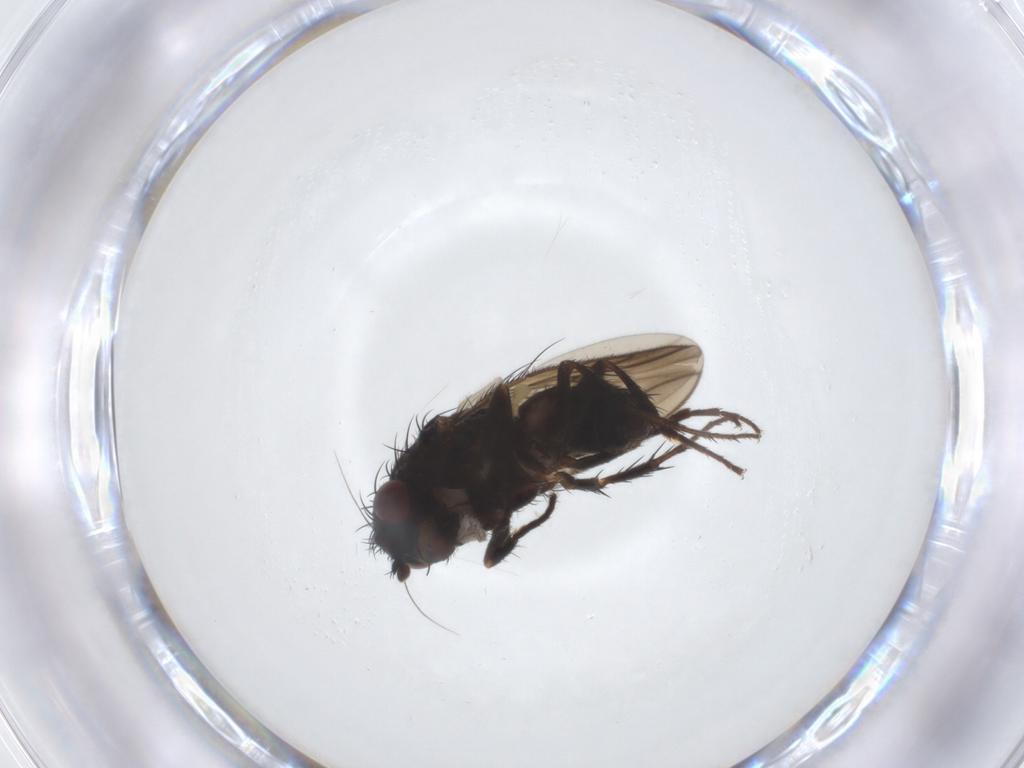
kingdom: Animalia
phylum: Arthropoda
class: Insecta
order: Diptera
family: Sphaeroceridae
